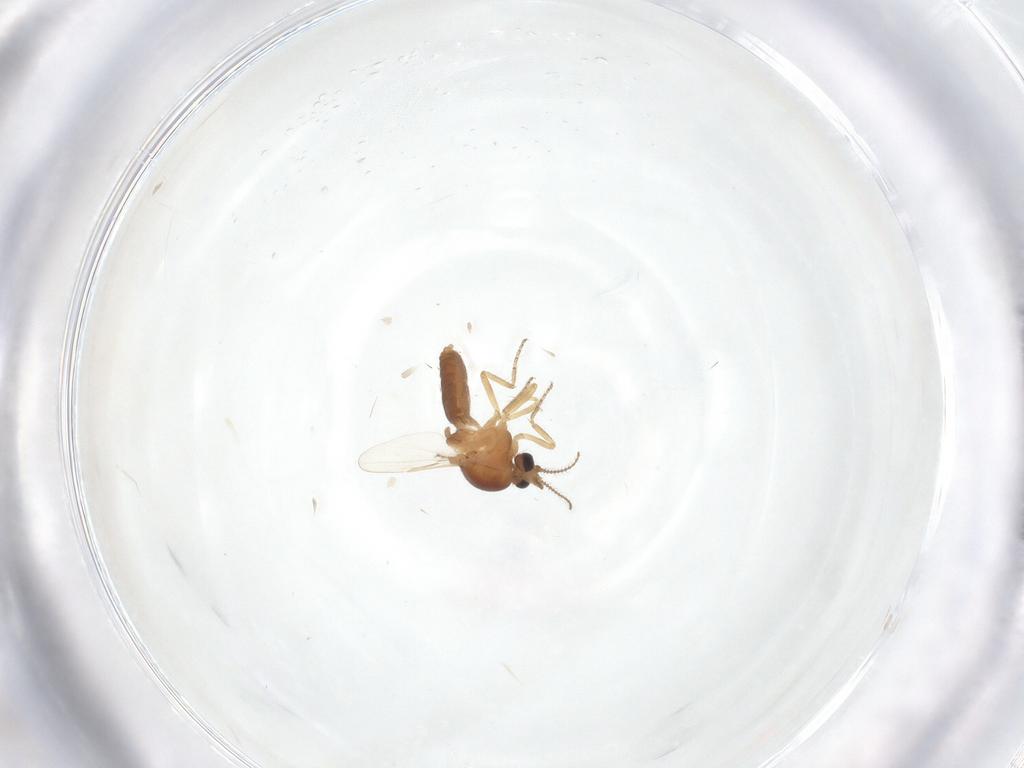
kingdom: Animalia
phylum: Arthropoda
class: Insecta
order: Diptera
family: Ceratopogonidae
